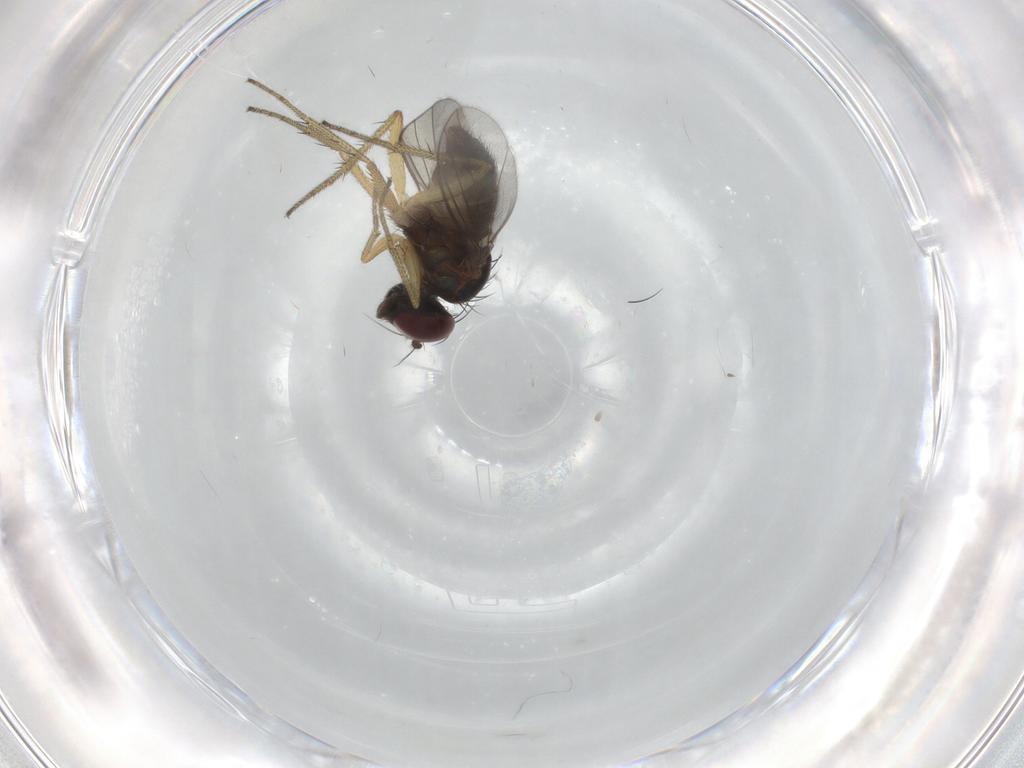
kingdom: Animalia
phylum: Arthropoda
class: Insecta
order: Diptera
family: Dolichopodidae
